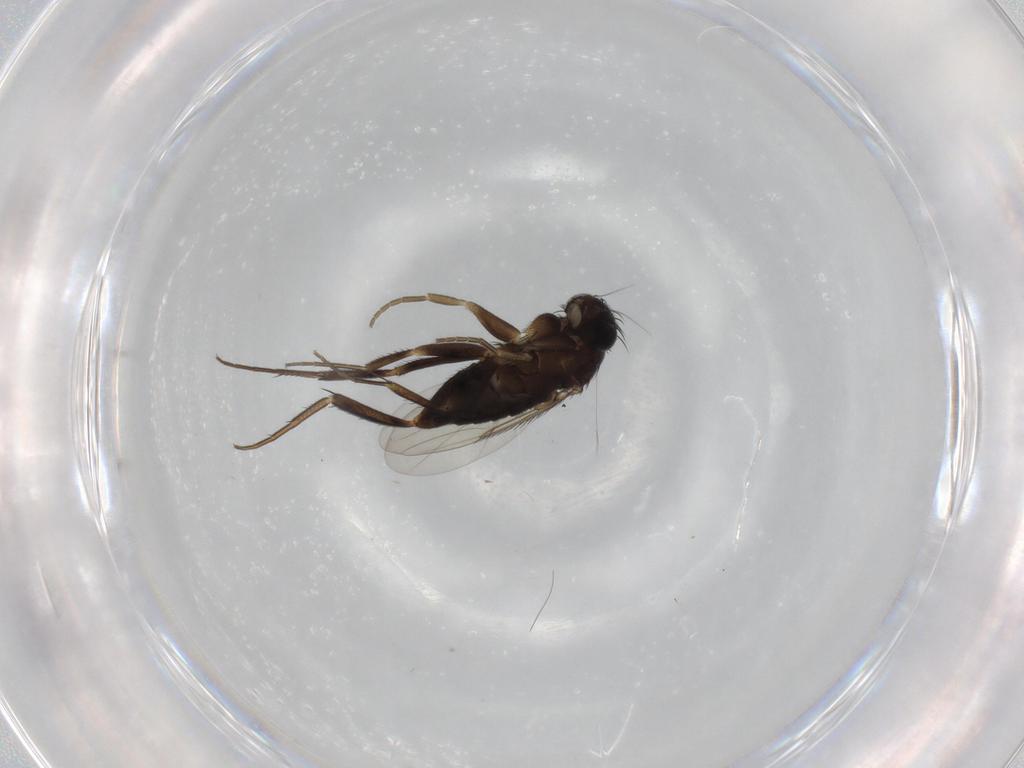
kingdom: Animalia
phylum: Arthropoda
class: Insecta
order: Diptera
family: Phoridae
